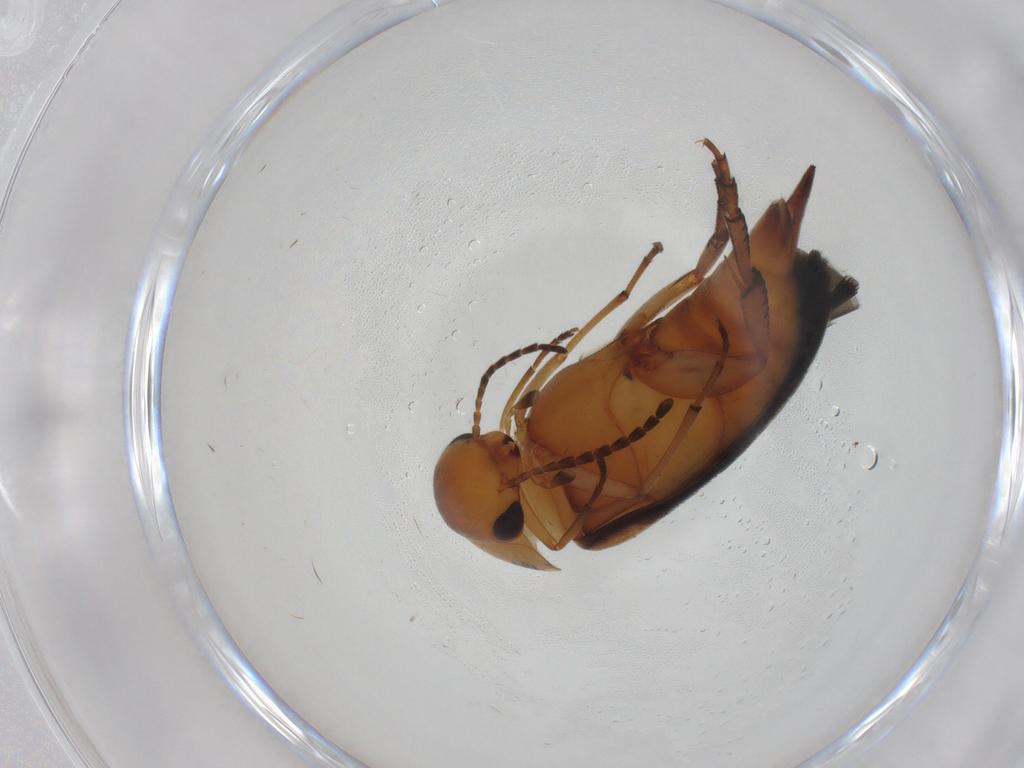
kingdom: Animalia
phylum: Arthropoda
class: Insecta
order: Coleoptera
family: Mordellidae
